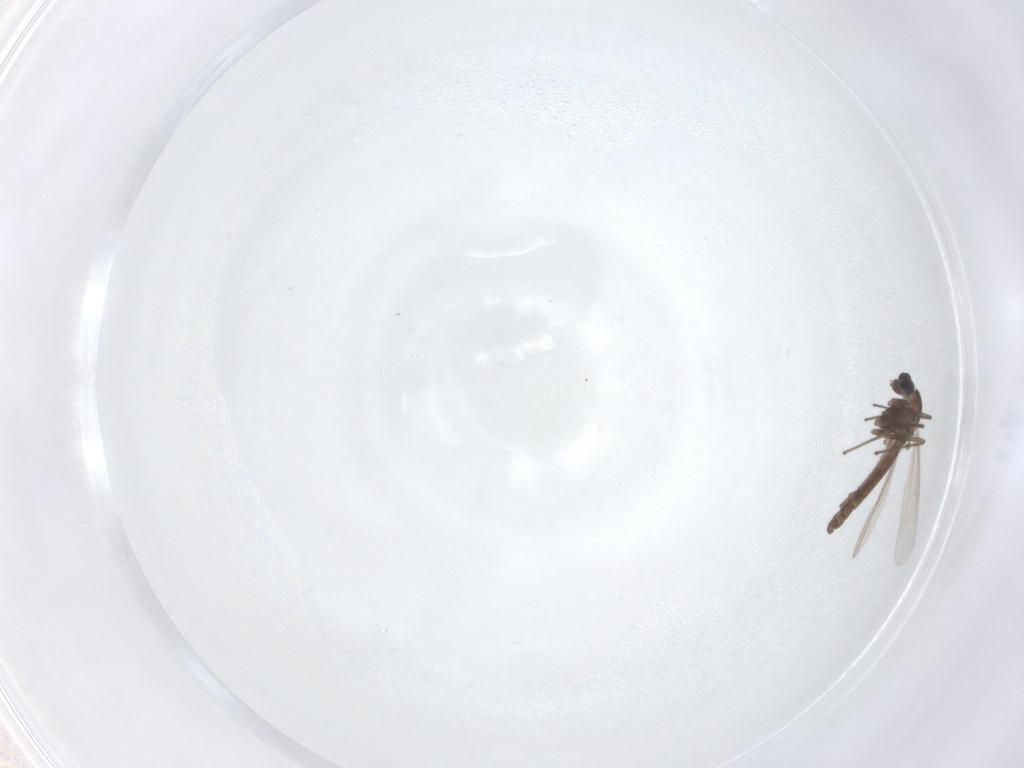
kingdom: Animalia
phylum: Arthropoda
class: Insecta
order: Diptera
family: Chironomidae
